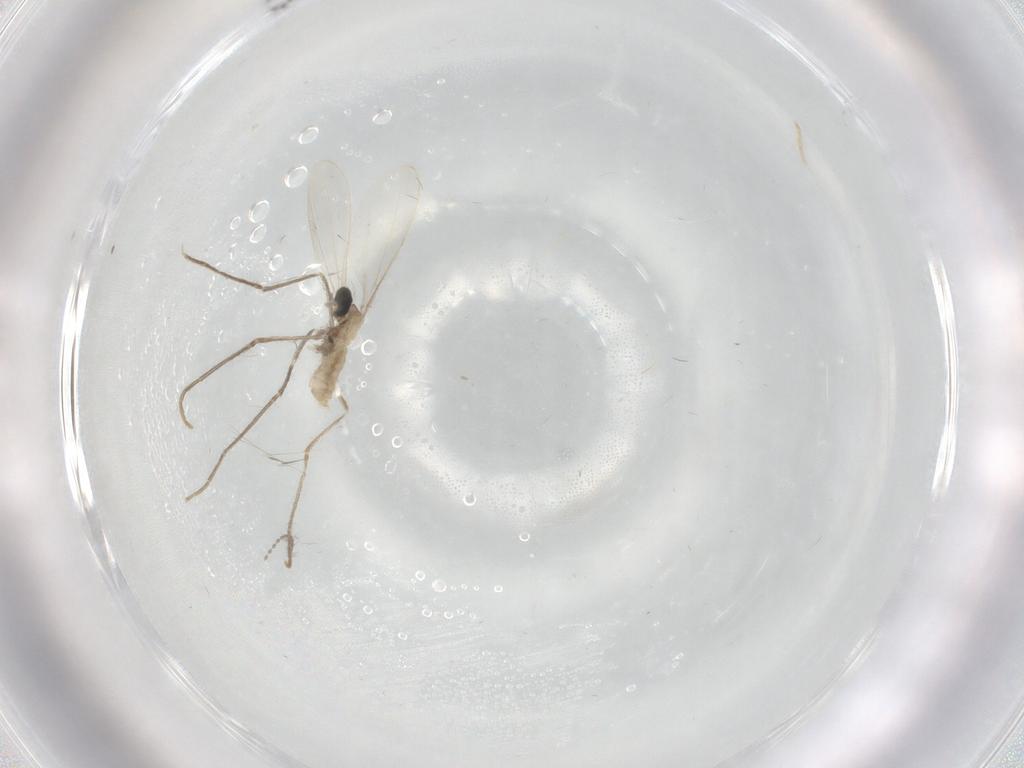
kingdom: Animalia
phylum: Arthropoda
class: Insecta
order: Diptera
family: Cecidomyiidae
